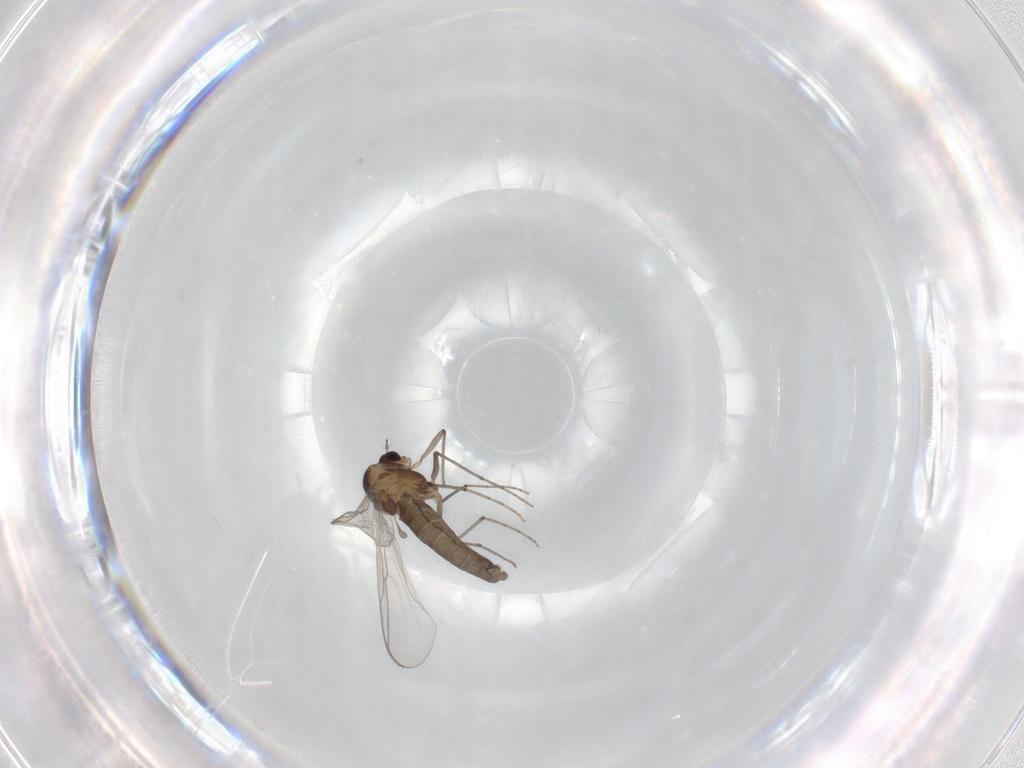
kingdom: Animalia
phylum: Arthropoda
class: Insecta
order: Diptera
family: Chironomidae
